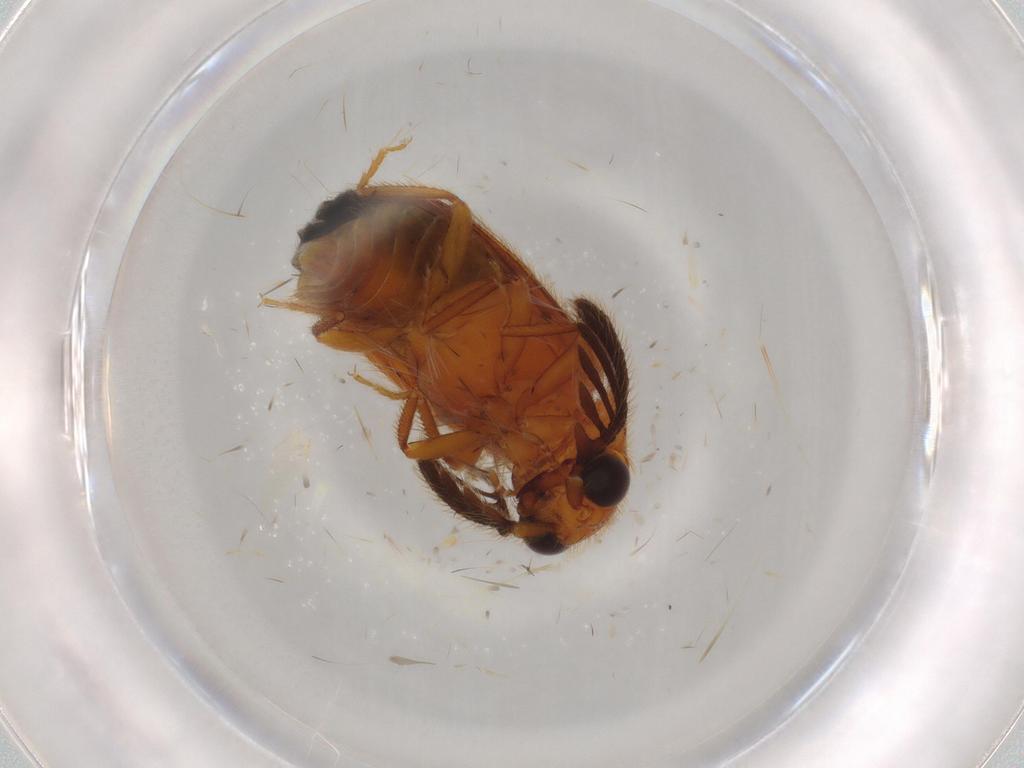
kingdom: Animalia
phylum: Arthropoda
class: Insecta
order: Coleoptera
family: Elateridae
